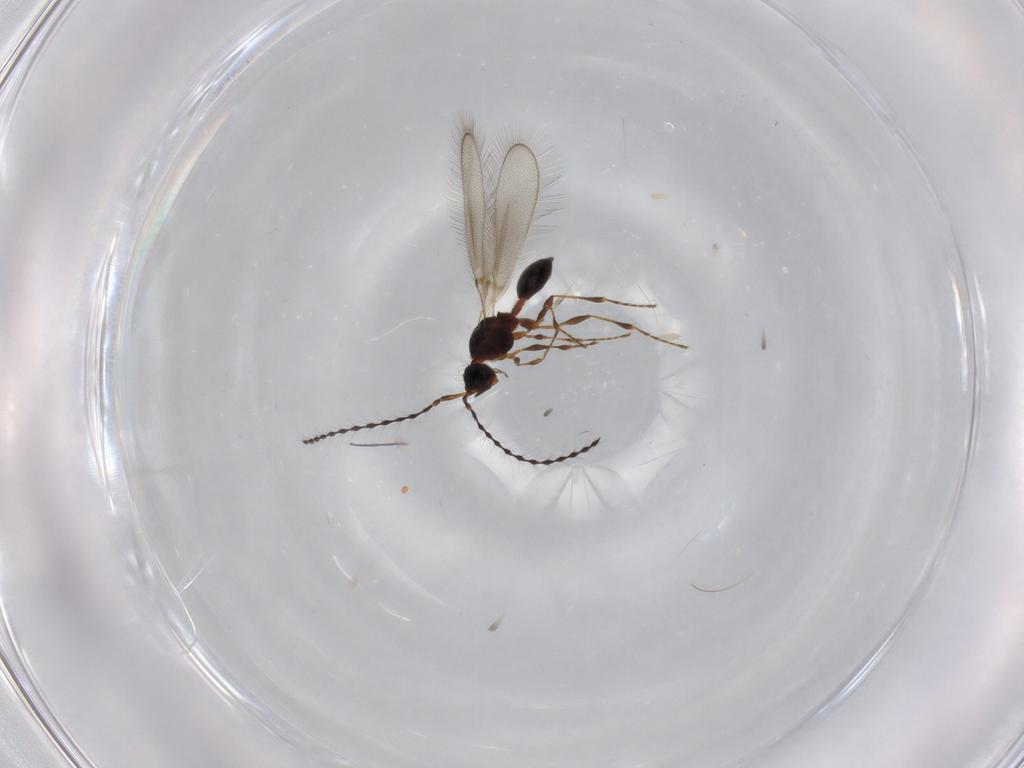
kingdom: Animalia
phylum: Arthropoda
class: Insecta
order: Hymenoptera
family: Diapriidae
